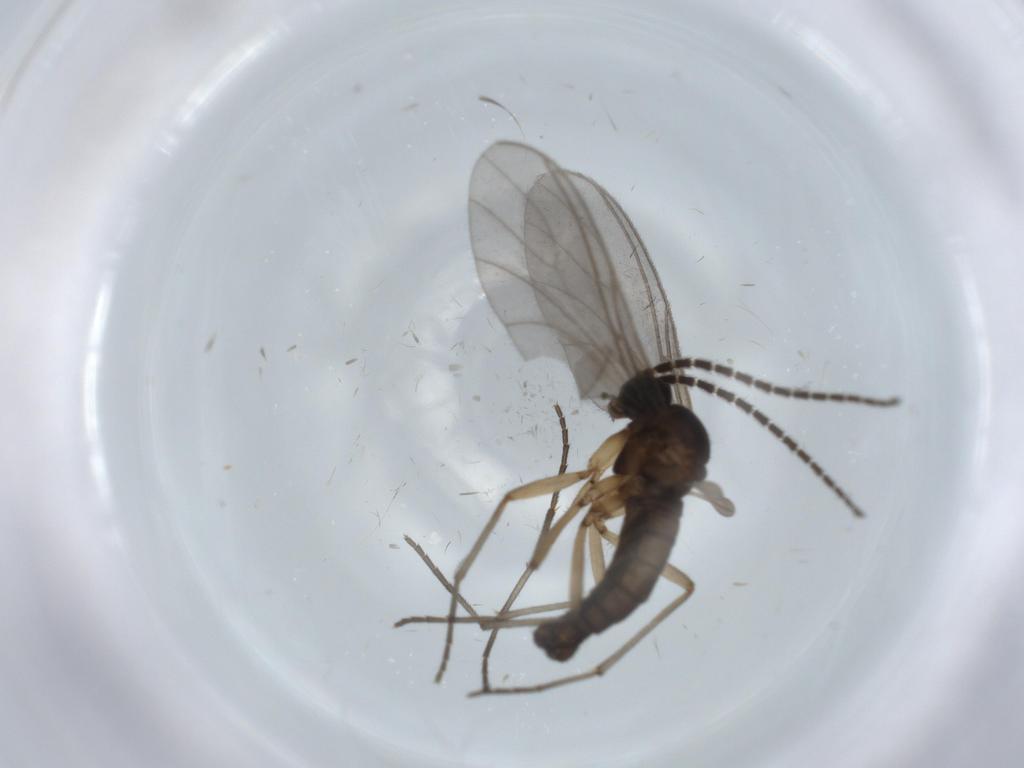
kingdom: Animalia
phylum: Arthropoda
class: Insecta
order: Diptera
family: Sciaridae
